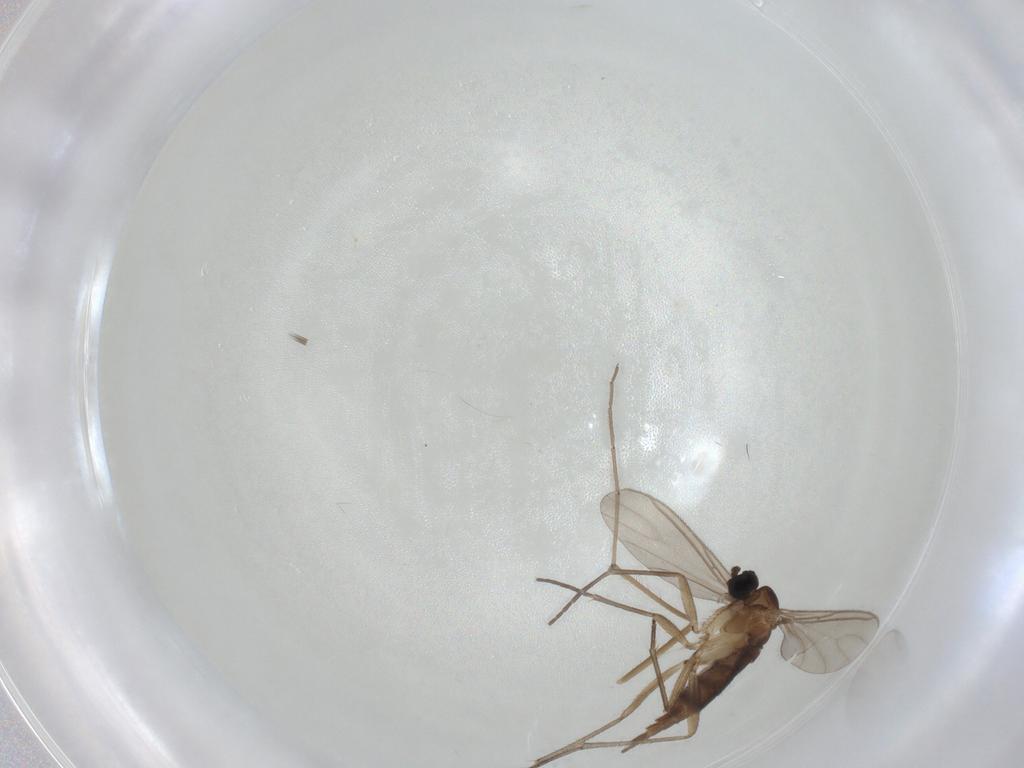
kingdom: Animalia
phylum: Arthropoda
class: Insecta
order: Diptera
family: Sciaridae
